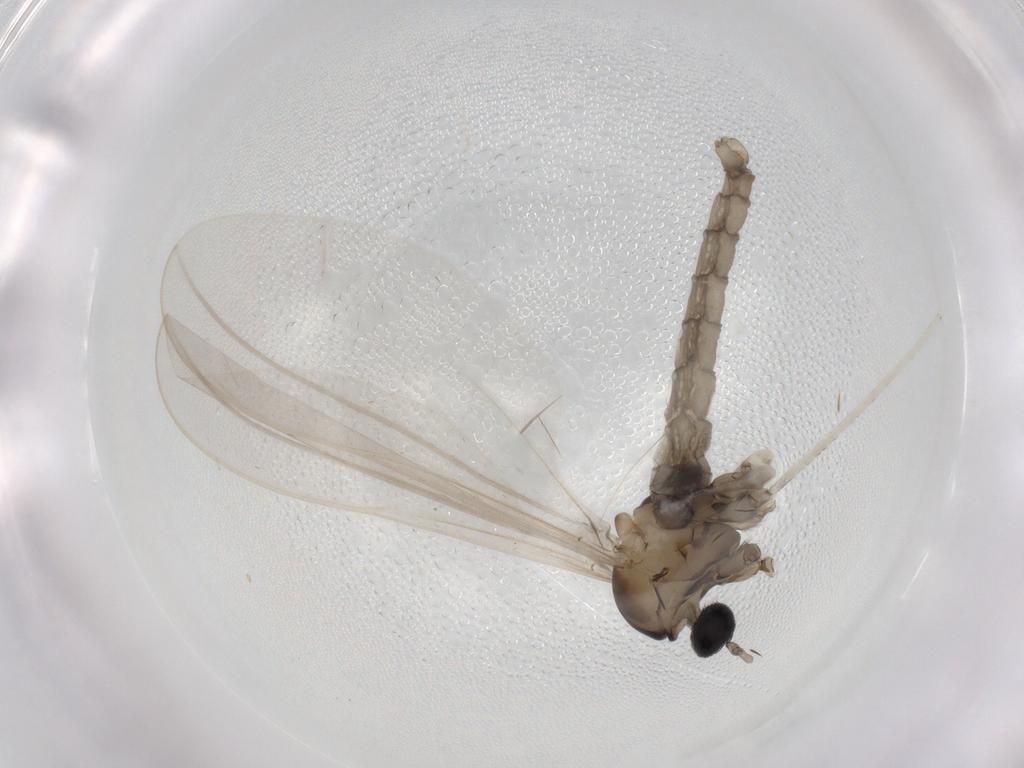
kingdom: Animalia
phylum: Arthropoda
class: Insecta
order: Diptera
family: Cecidomyiidae
